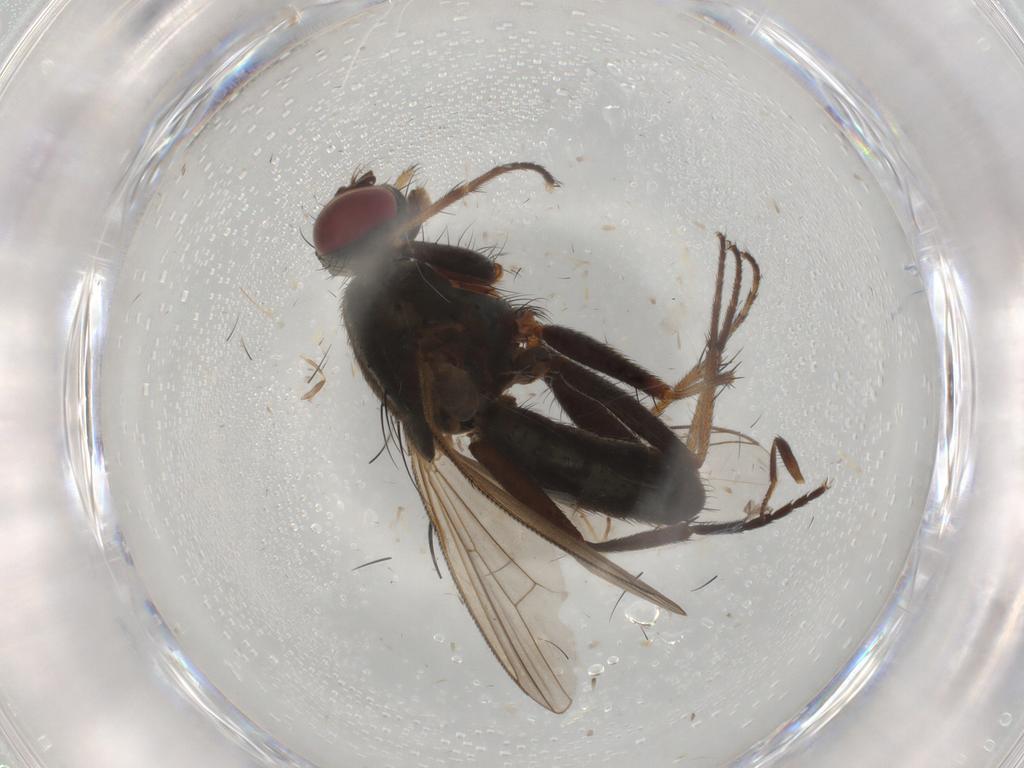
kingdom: Animalia
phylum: Arthropoda
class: Insecta
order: Diptera
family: Muscidae
